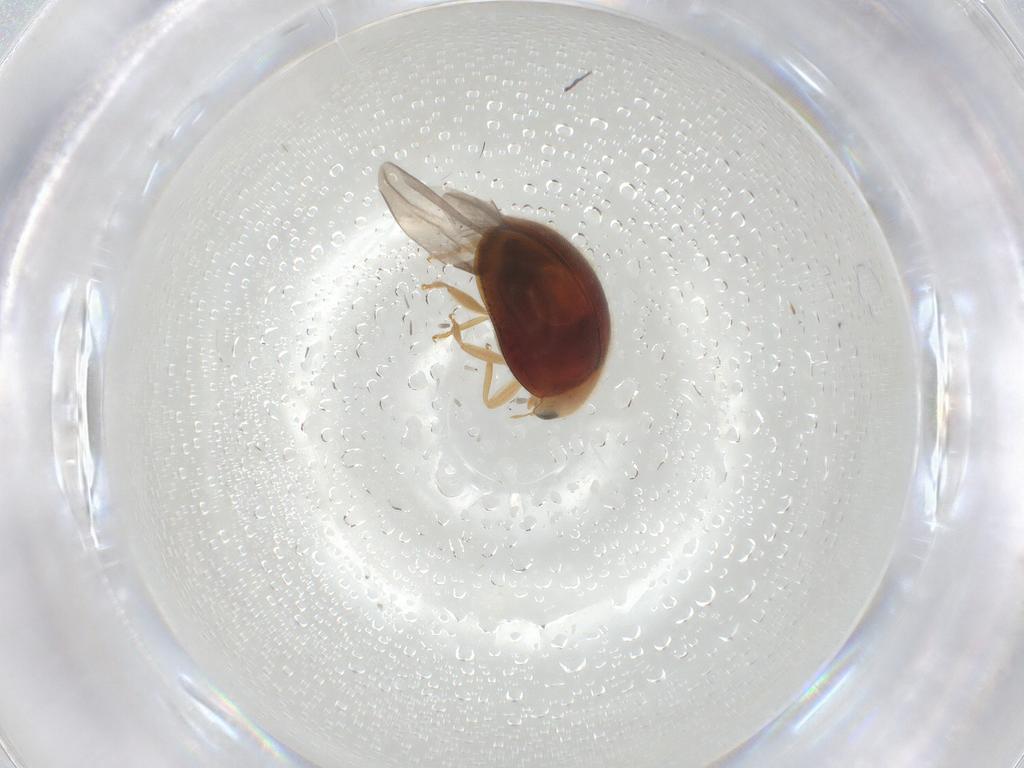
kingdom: Animalia
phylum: Arthropoda
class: Insecta
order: Coleoptera
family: Coccinellidae
